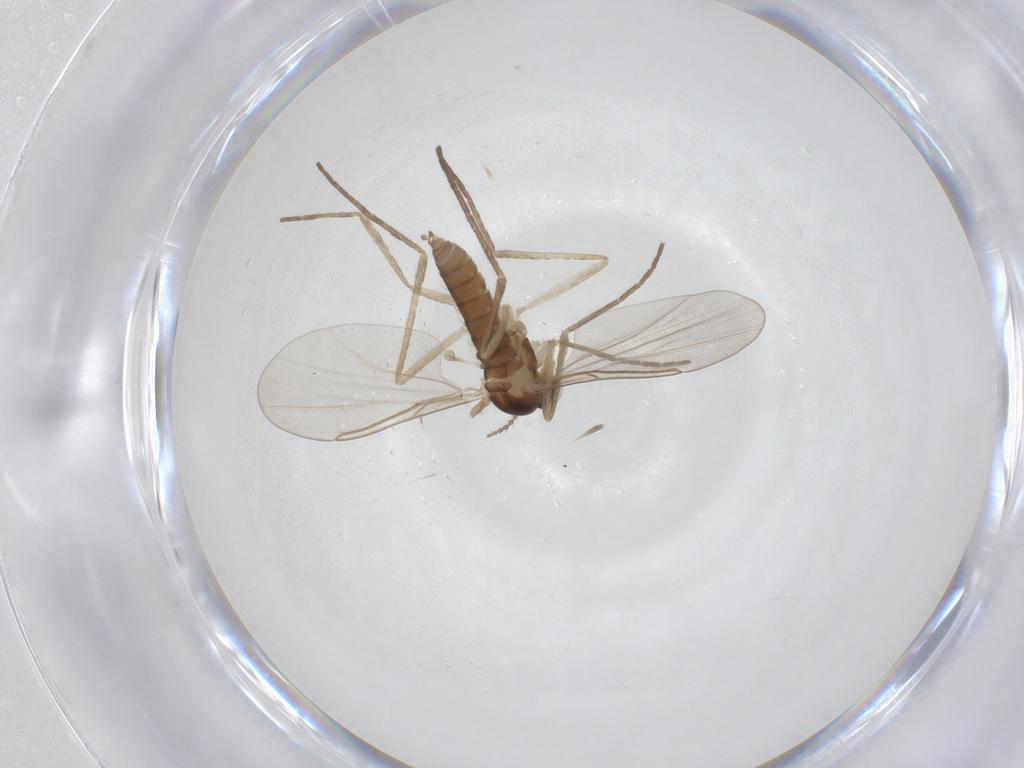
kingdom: Animalia
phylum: Arthropoda
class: Insecta
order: Diptera
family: Cecidomyiidae
